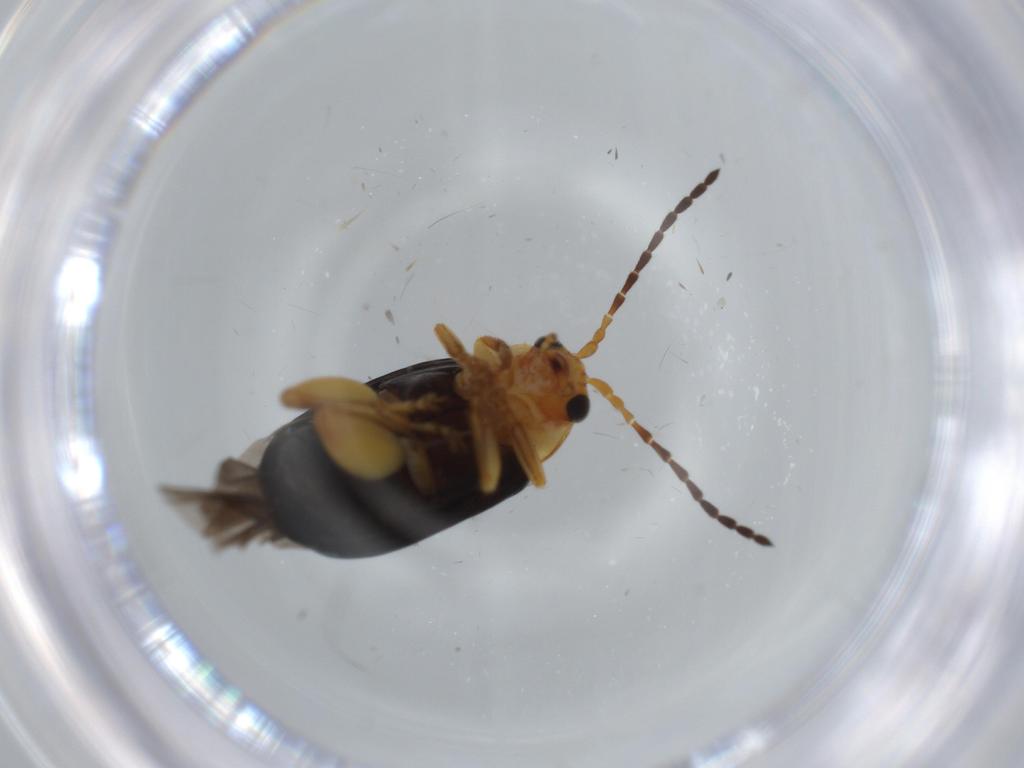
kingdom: Animalia
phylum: Arthropoda
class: Insecta
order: Coleoptera
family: Chrysomelidae
